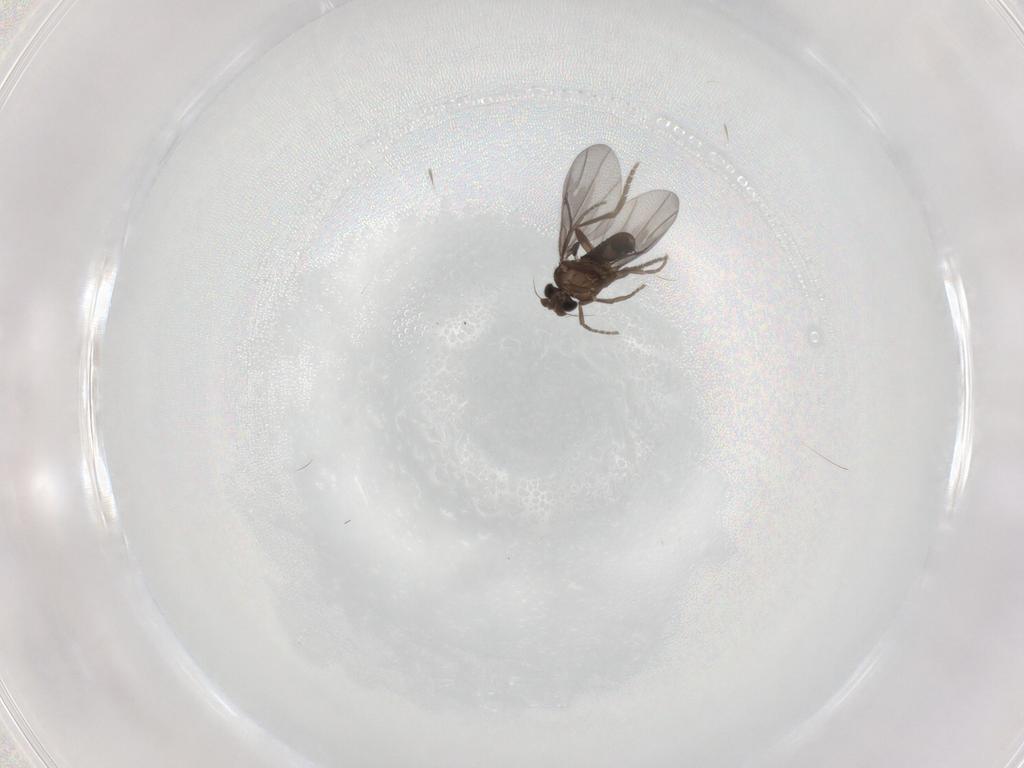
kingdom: Animalia
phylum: Arthropoda
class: Insecta
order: Diptera
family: Phoridae
